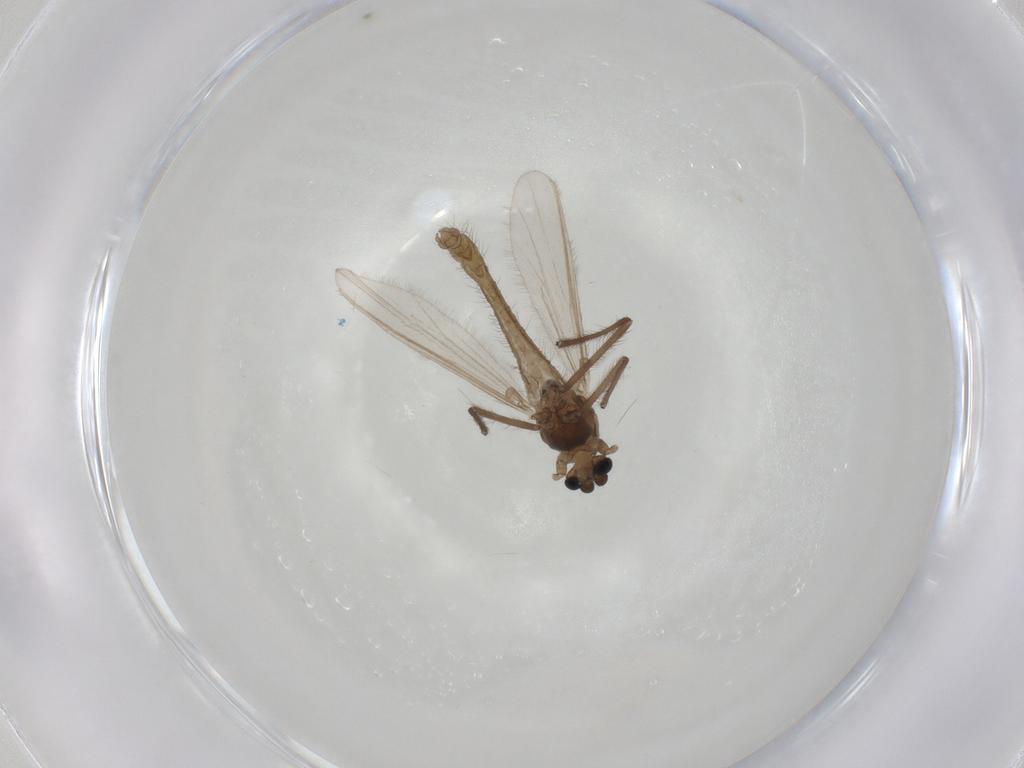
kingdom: Animalia
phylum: Arthropoda
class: Insecta
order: Diptera
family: Chironomidae
